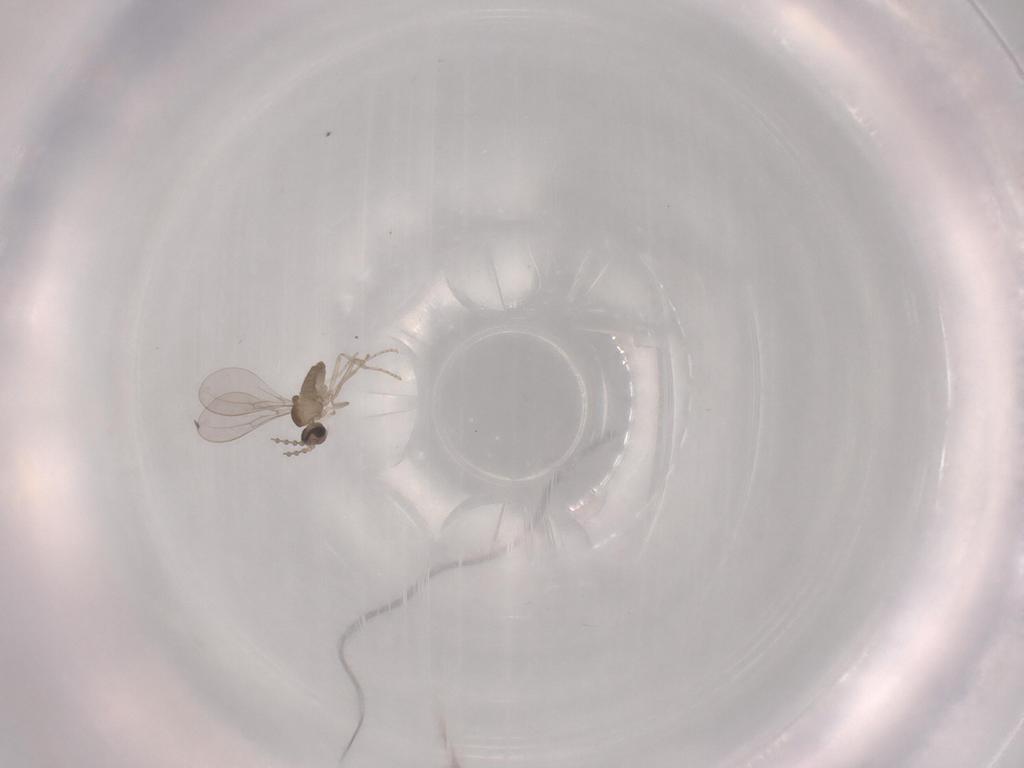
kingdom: Animalia
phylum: Arthropoda
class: Insecta
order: Diptera
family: Cecidomyiidae
